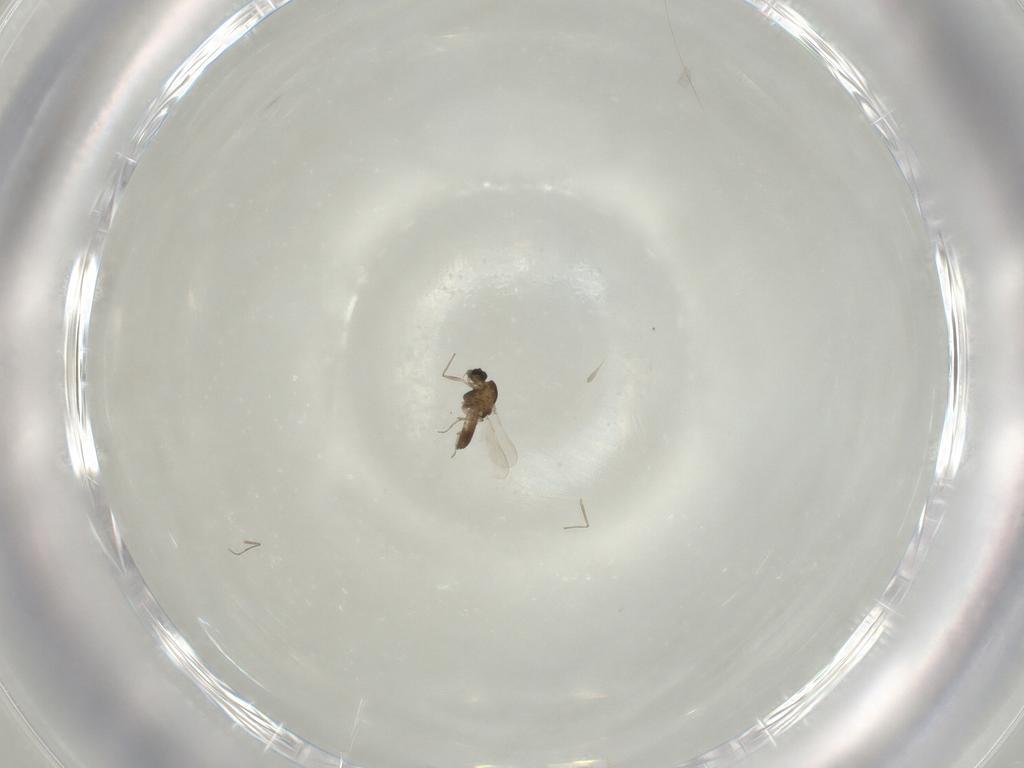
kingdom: Animalia
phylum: Arthropoda
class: Insecta
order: Diptera
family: Chironomidae
